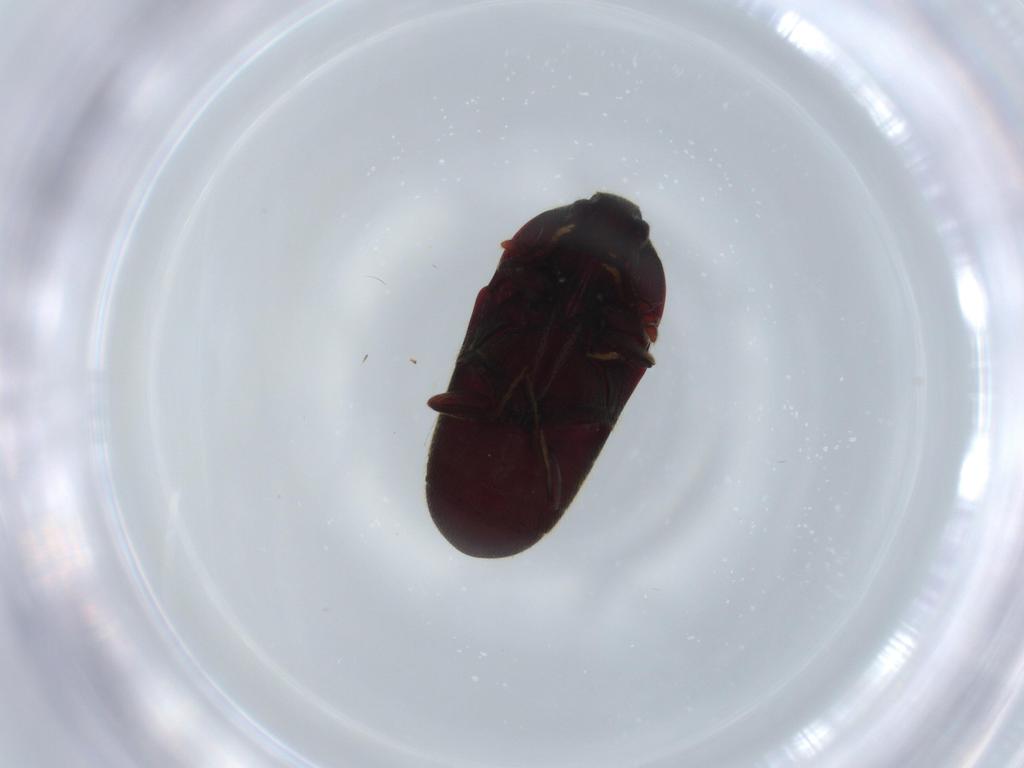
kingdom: Animalia
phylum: Arthropoda
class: Insecta
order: Coleoptera
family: Throscidae
